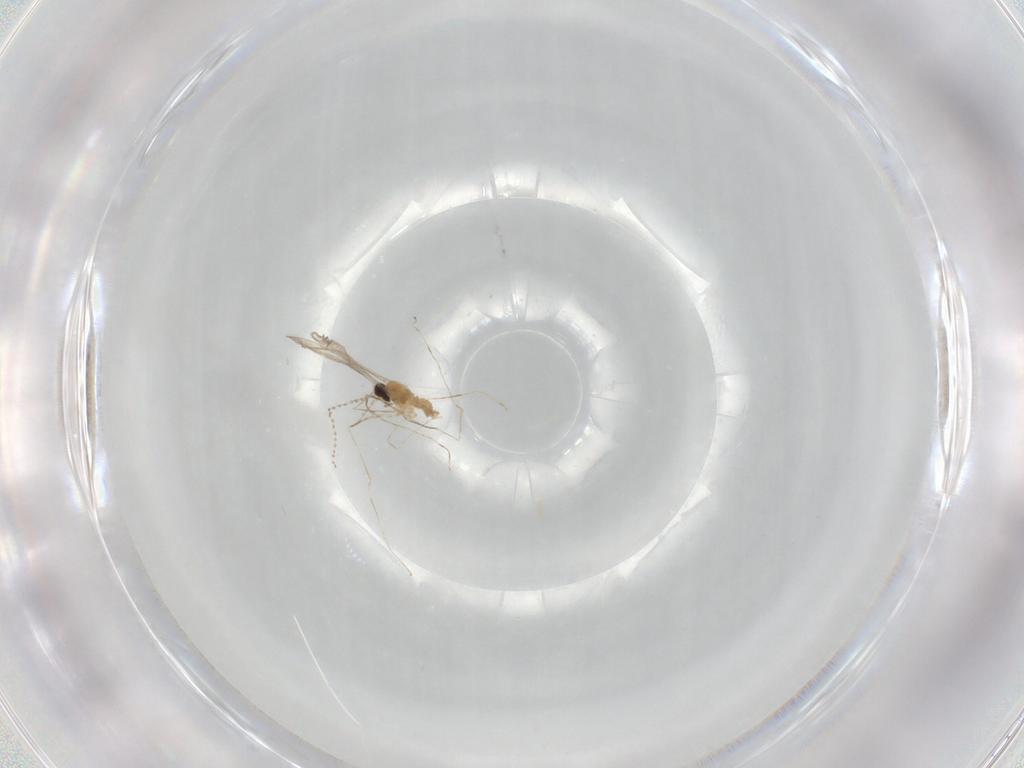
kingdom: Animalia
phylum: Arthropoda
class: Insecta
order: Diptera
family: Cecidomyiidae
